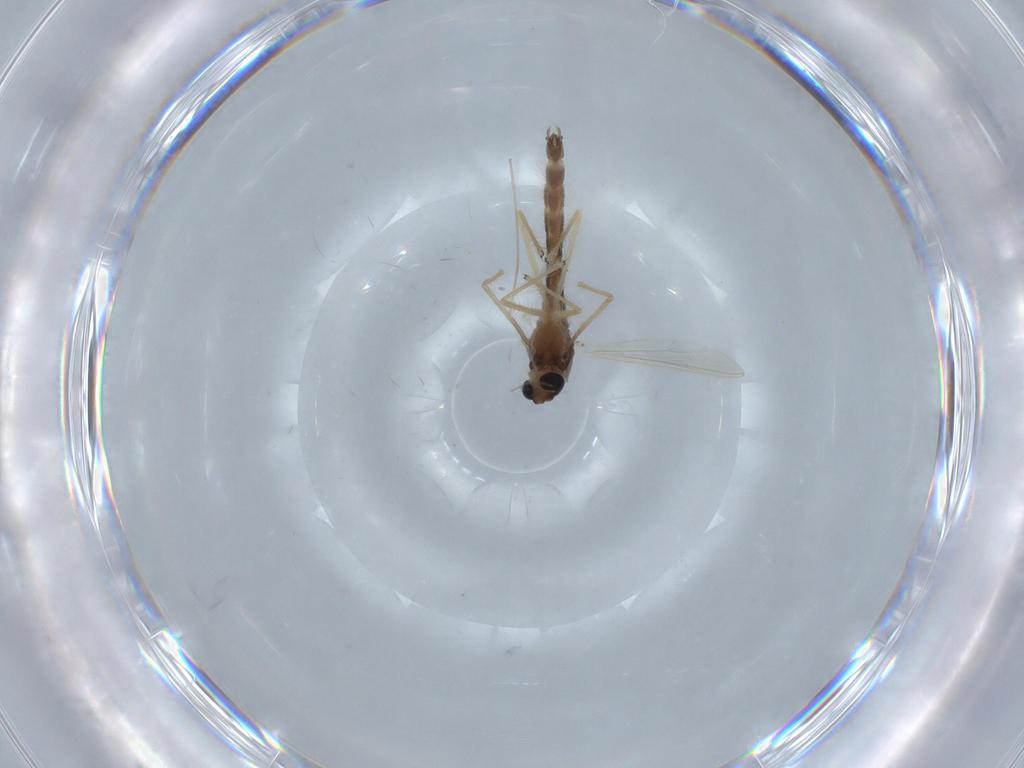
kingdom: Animalia
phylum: Arthropoda
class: Insecta
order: Diptera
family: Chironomidae
